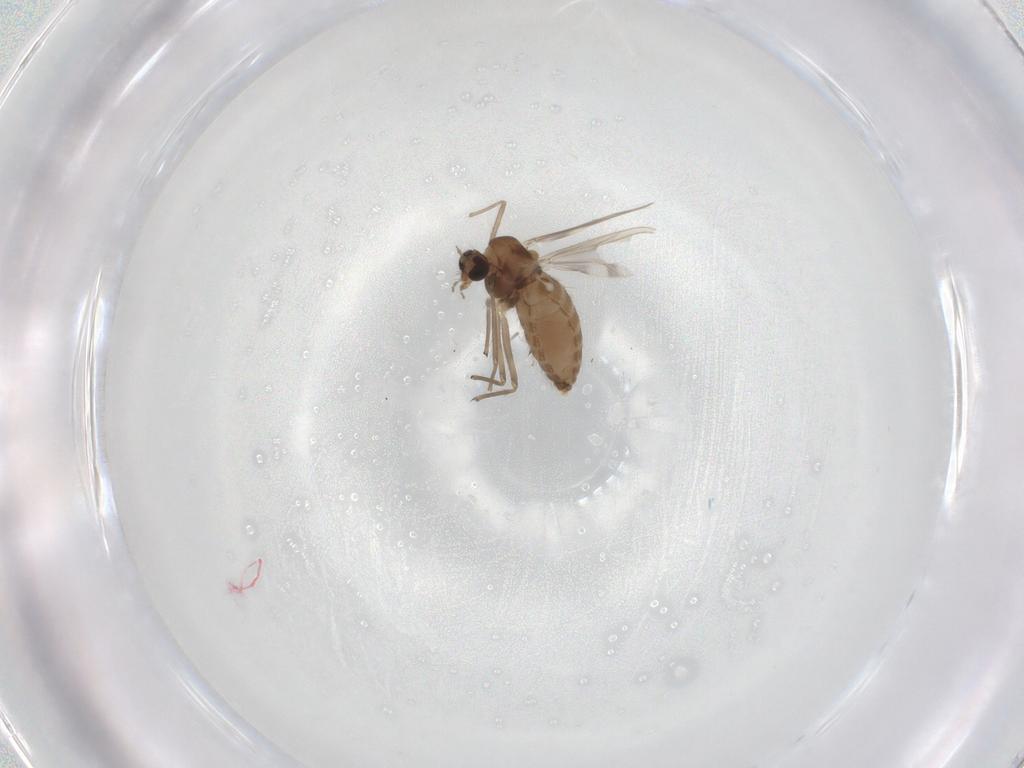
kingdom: Animalia
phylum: Arthropoda
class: Insecta
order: Diptera
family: Chironomidae
